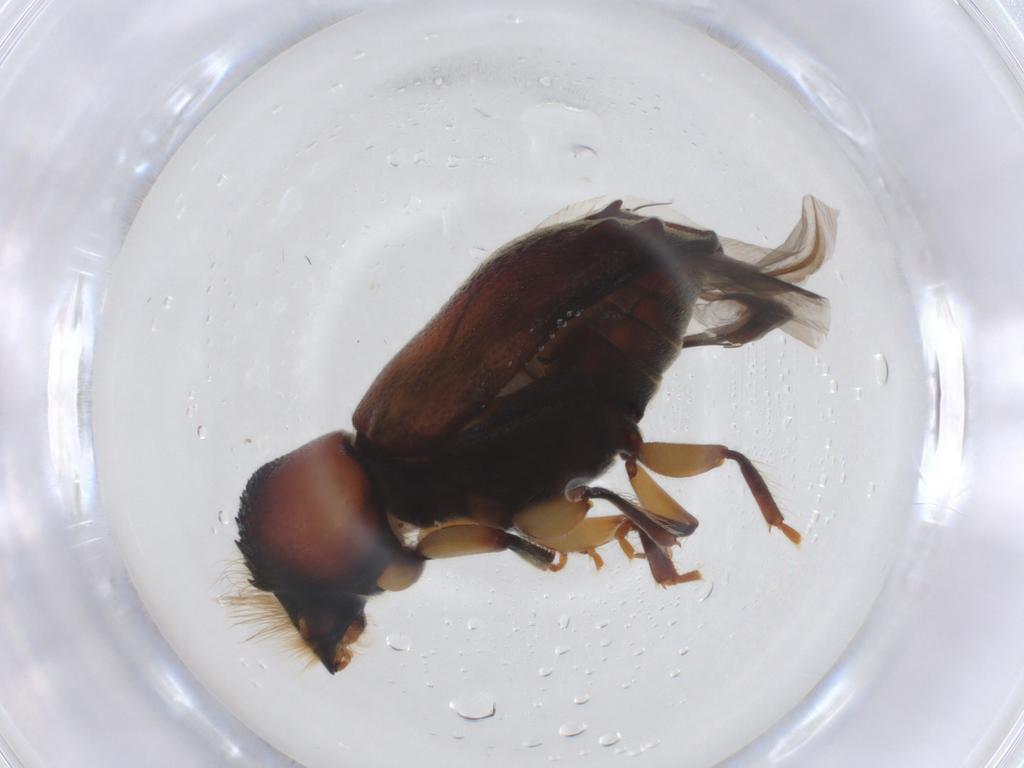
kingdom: Animalia
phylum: Arthropoda
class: Insecta
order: Coleoptera
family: Bostrichidae
